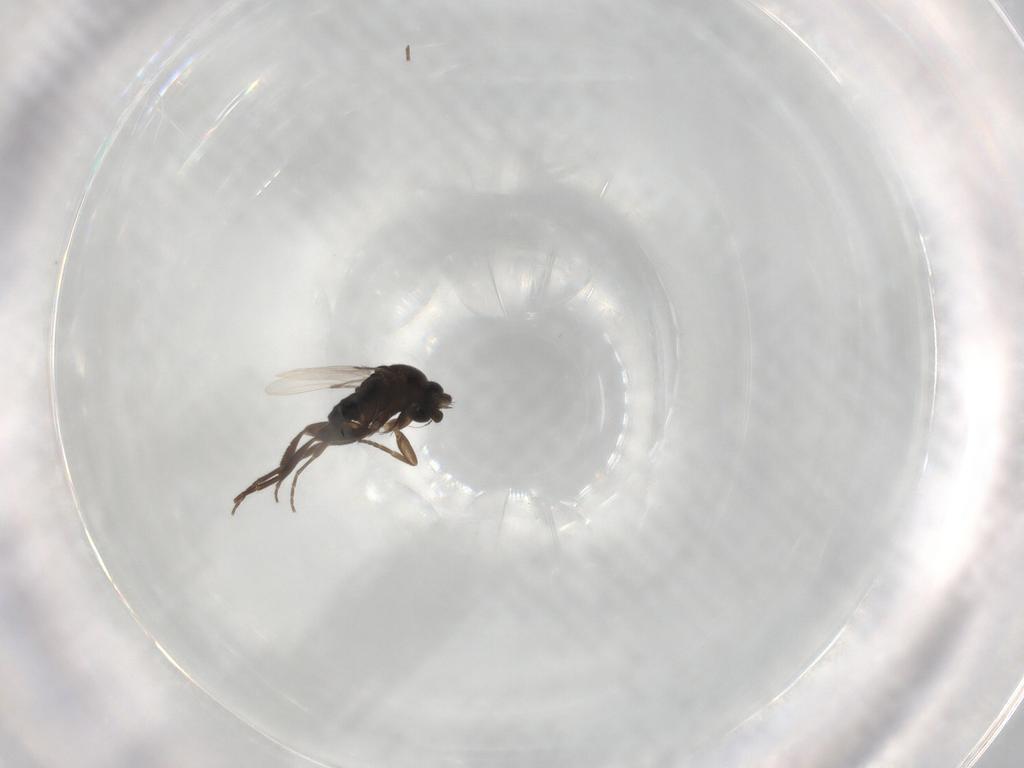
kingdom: Animalia
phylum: Arthropoda
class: Insecta
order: Diptera
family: Phoridae
